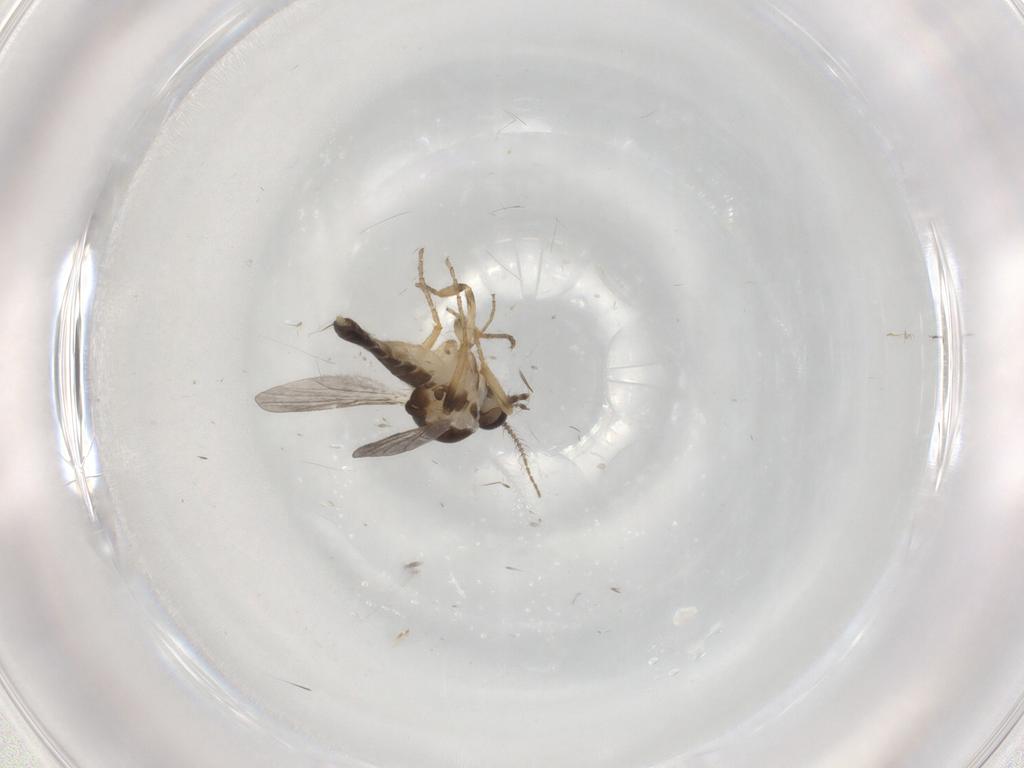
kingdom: Animalia
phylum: Arthropoda
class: Insecta
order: Diptera
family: Ceratopogonidae
